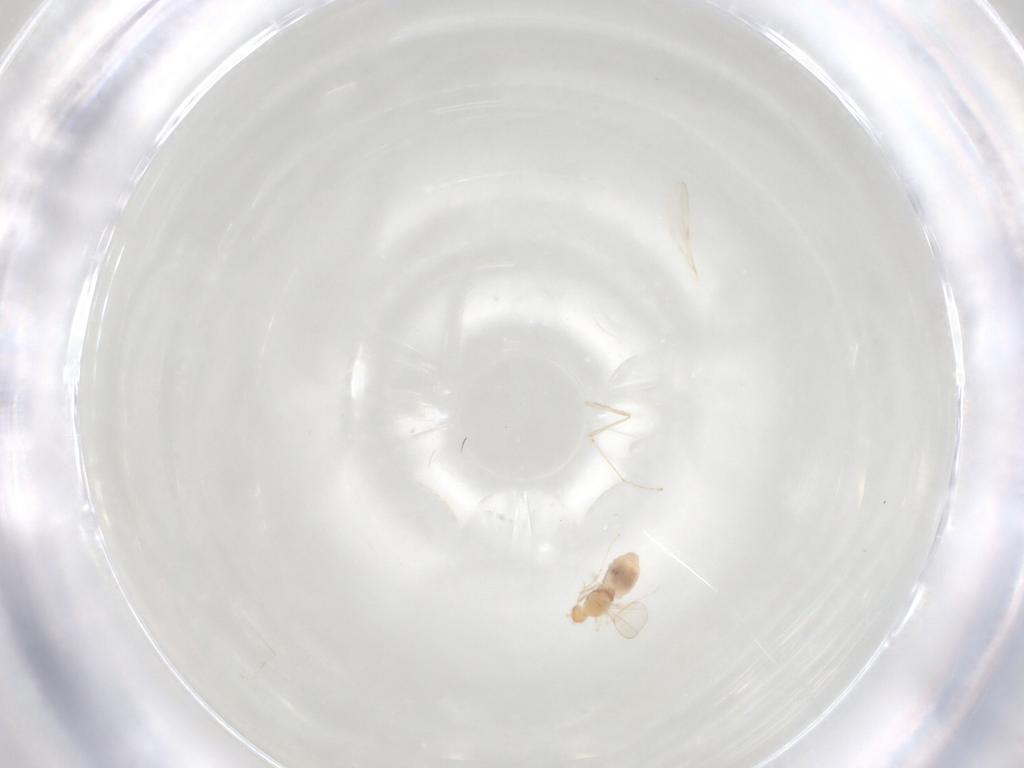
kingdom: Animalia
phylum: Arthropoda
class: Insecta
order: Diptera
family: Cecidomyiidae
